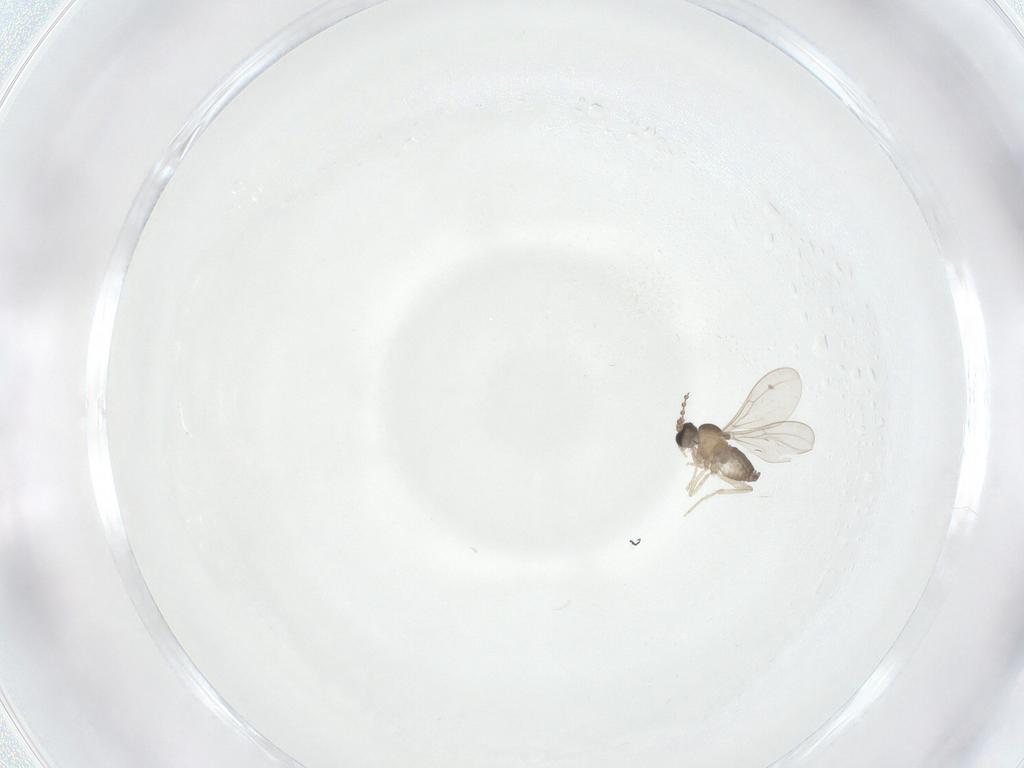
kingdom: Animalia
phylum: Arthropoda
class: Insecta
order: Diptera
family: Cecidomyiidae
